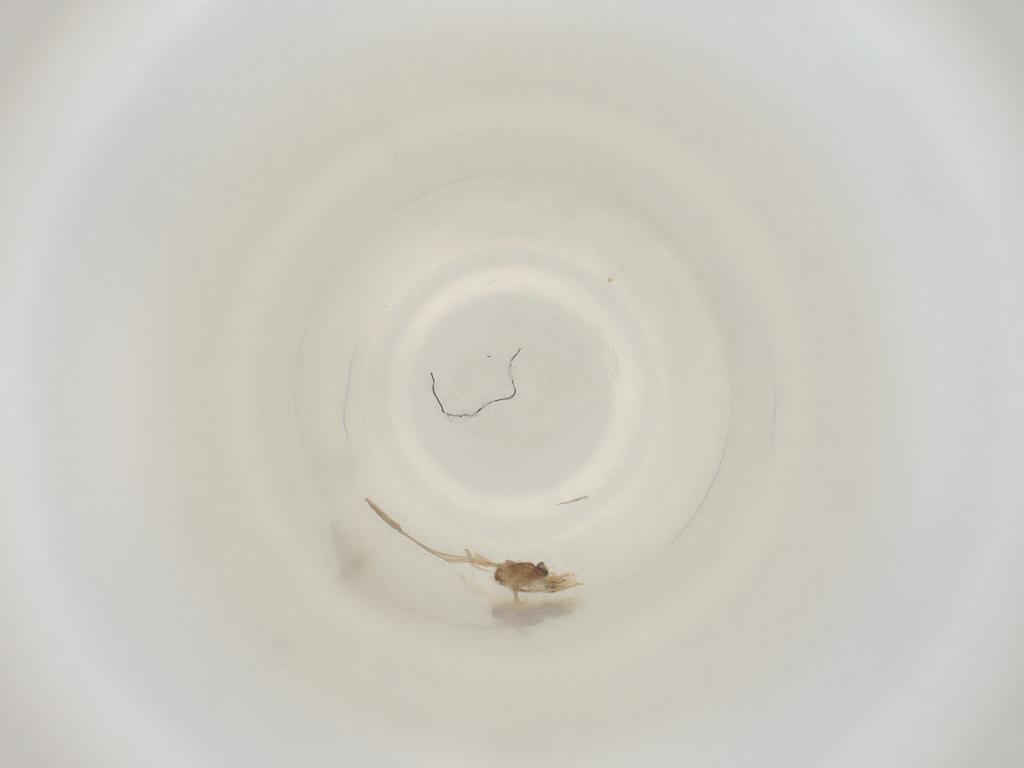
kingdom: Animalia
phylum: Arthropoda
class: Insecta
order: Diptera
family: Cecidomyiidae
